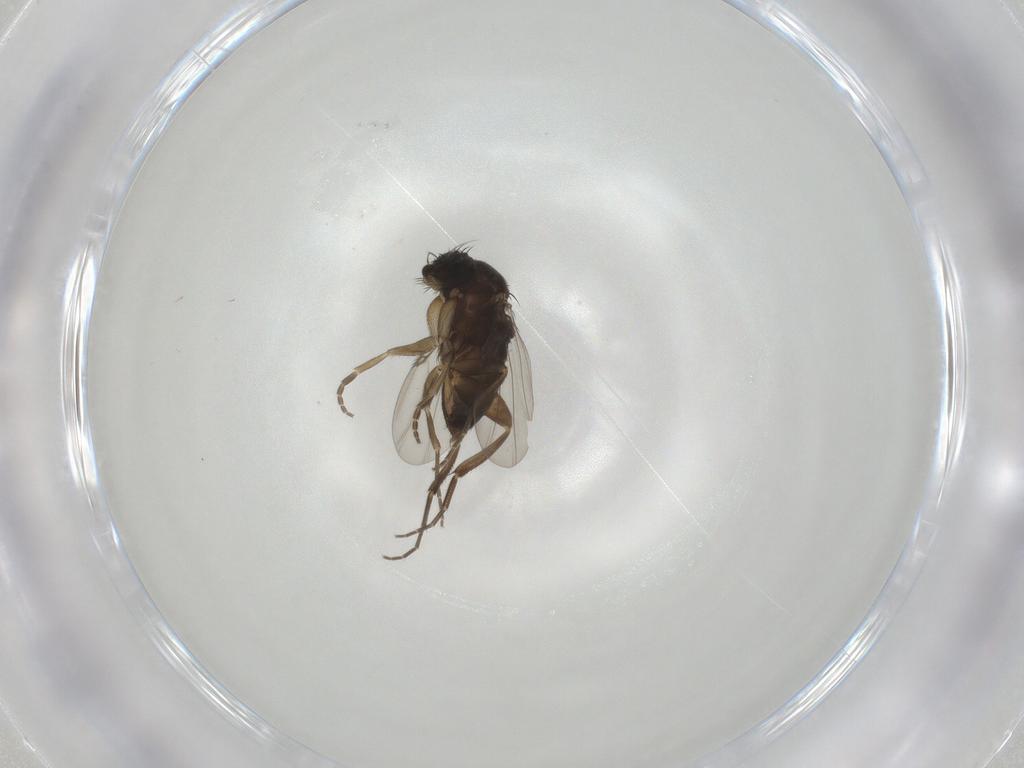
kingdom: Animalia
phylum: Arthropoda
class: Insecta
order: Diptera
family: Phoridae
